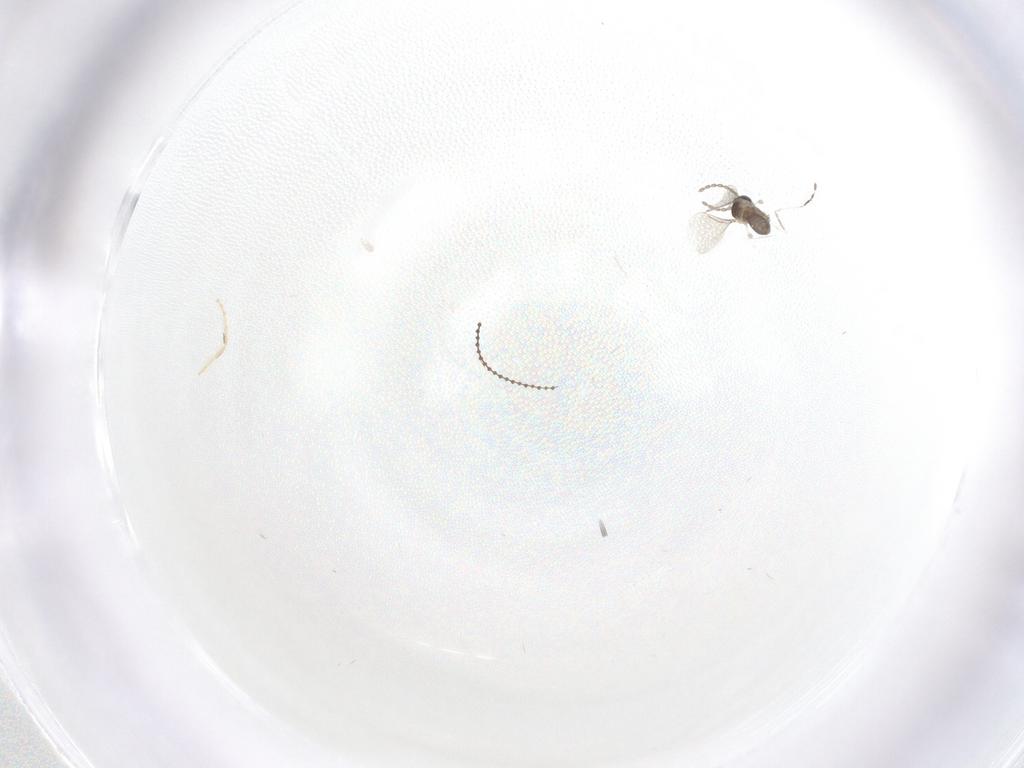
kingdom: Animalia
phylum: Arthropoda
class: Insecta
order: Diptera
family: Cecidomyiidae
